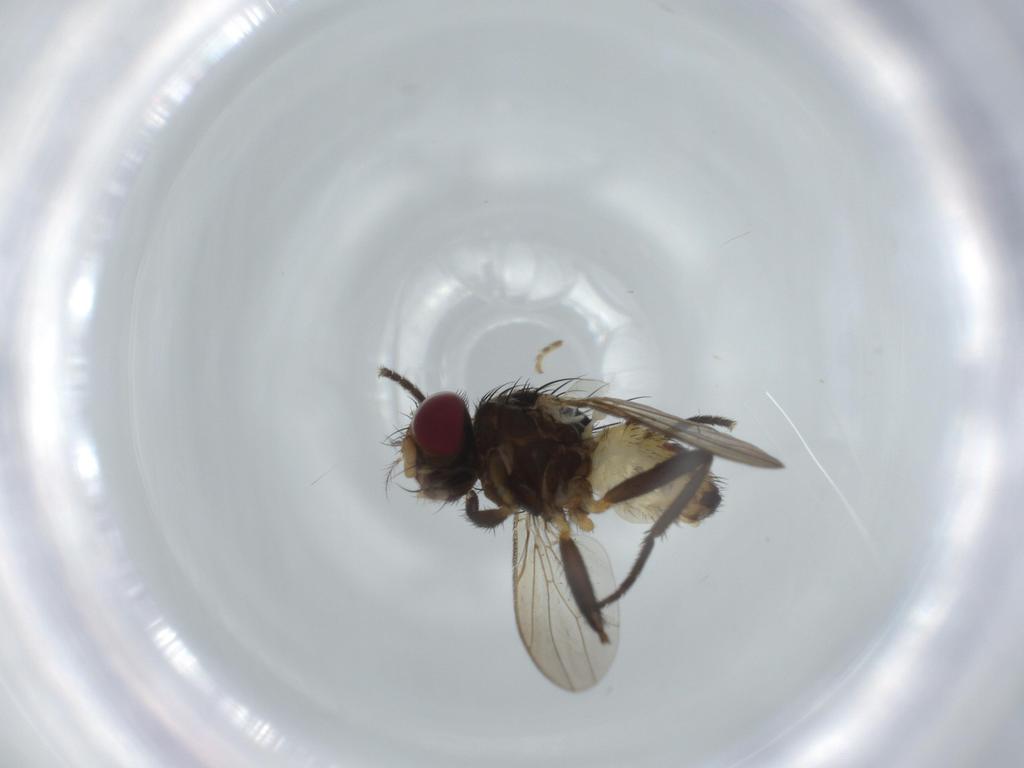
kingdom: Animalia
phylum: Arthropoda
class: Insecta
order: Diptera
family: Anthomyiidae
